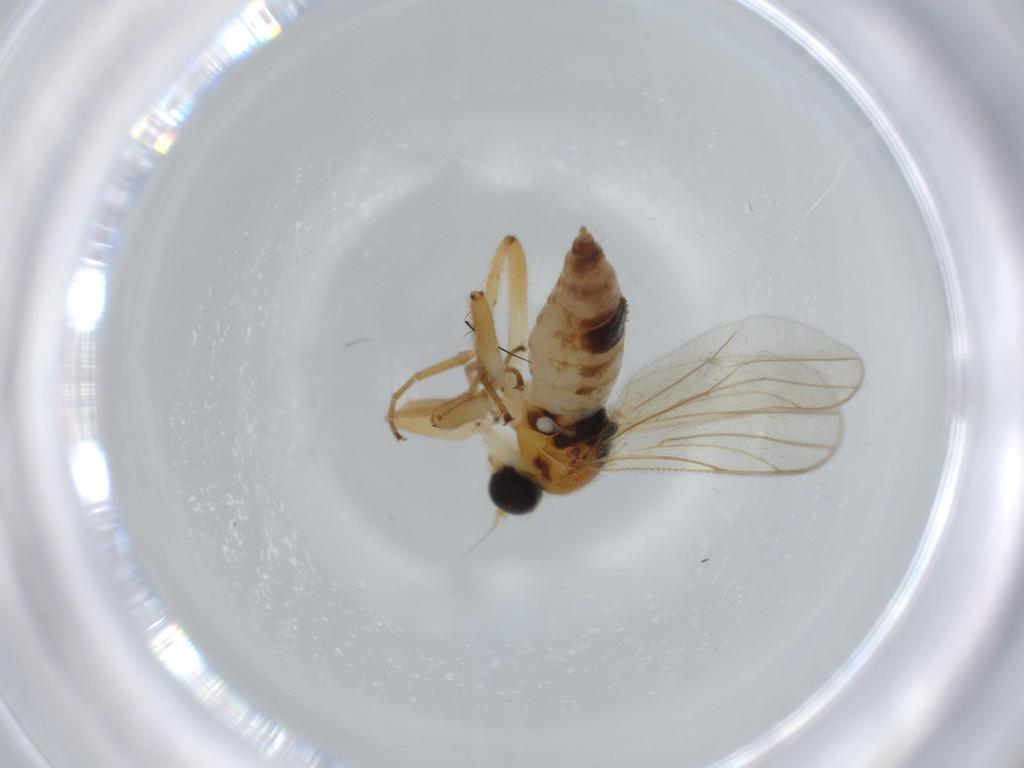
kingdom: Animalia
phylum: Arthropoda
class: Insecta
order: Diptera
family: Hybotidae
